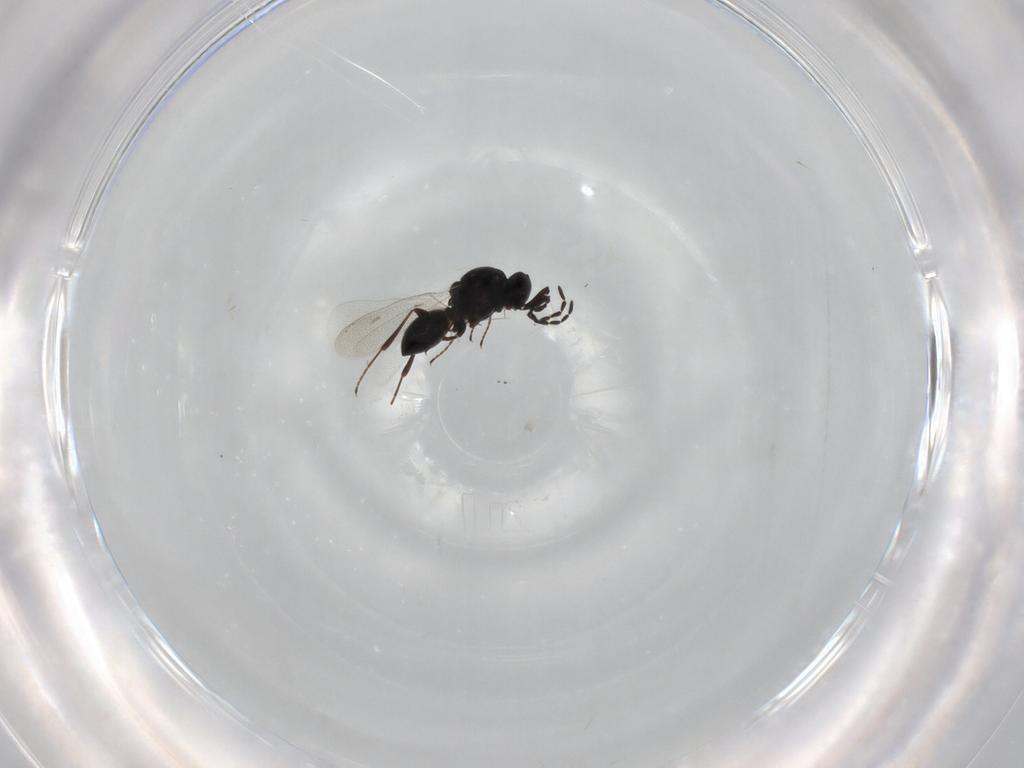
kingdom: Animalia
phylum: Arthropoda
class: Insecta
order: Hymenoptera
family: Platygastridae
